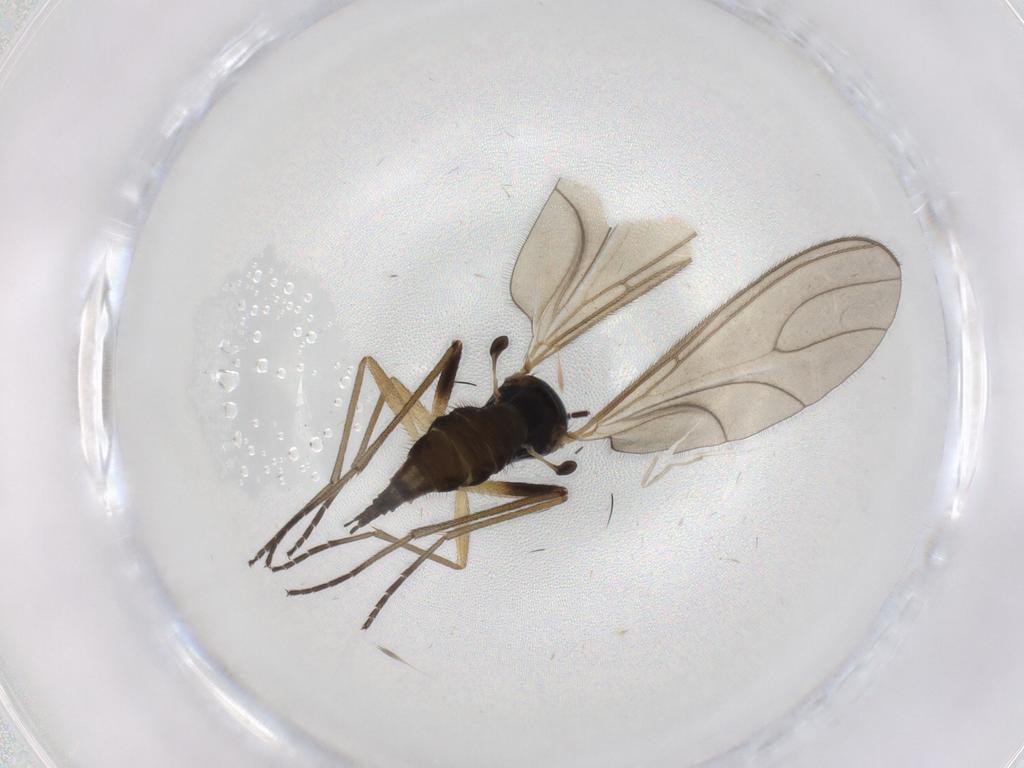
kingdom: Animalia
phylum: Arthropoda
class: Insecta
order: Diptera
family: Sciaridae
